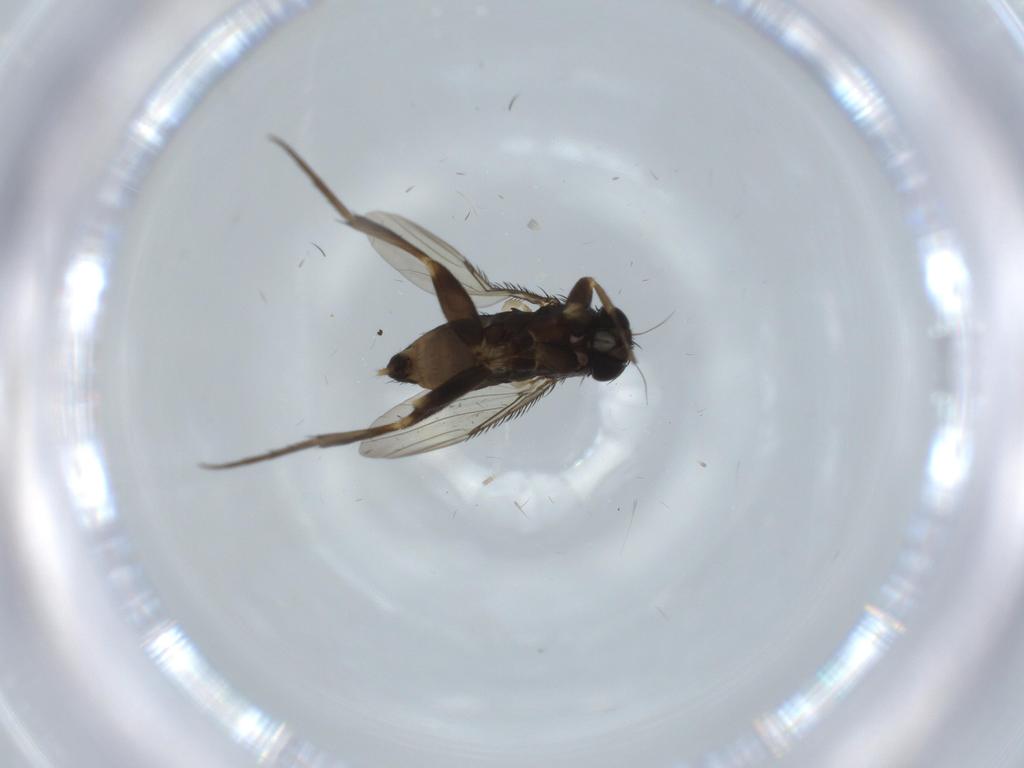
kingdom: Animalia
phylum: Arthropoda
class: Insecta
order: Diptera
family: Phoridae
